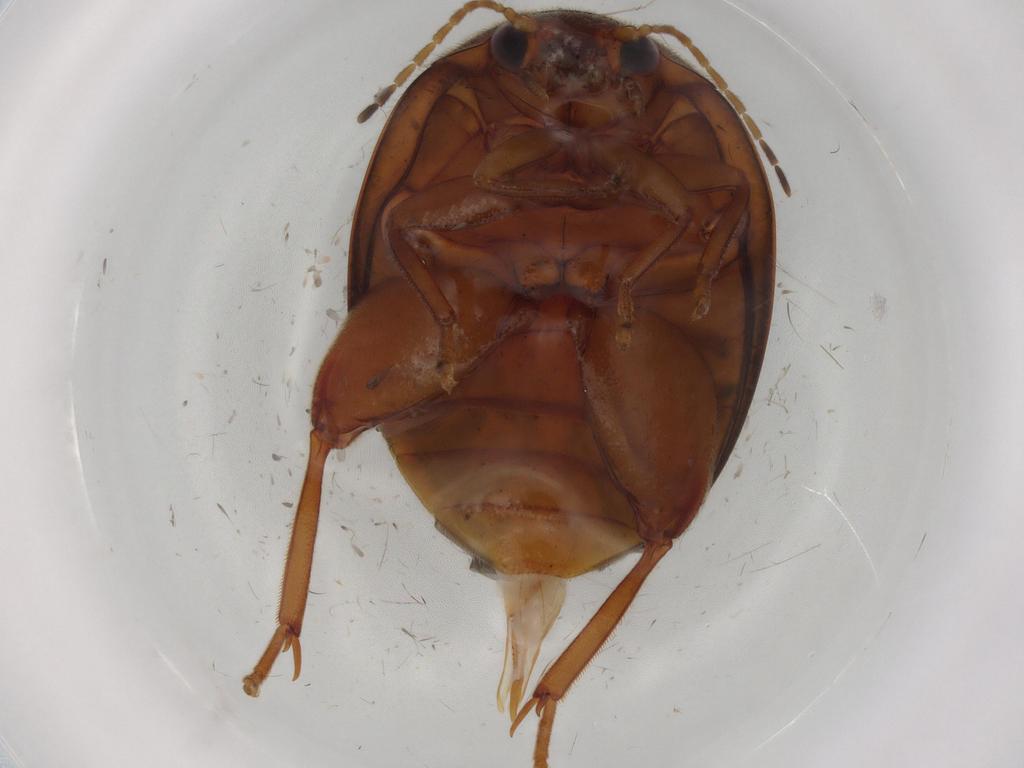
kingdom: Animalia
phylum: Arthropoda
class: Insecta
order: Coleoptera
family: Scirtidae
